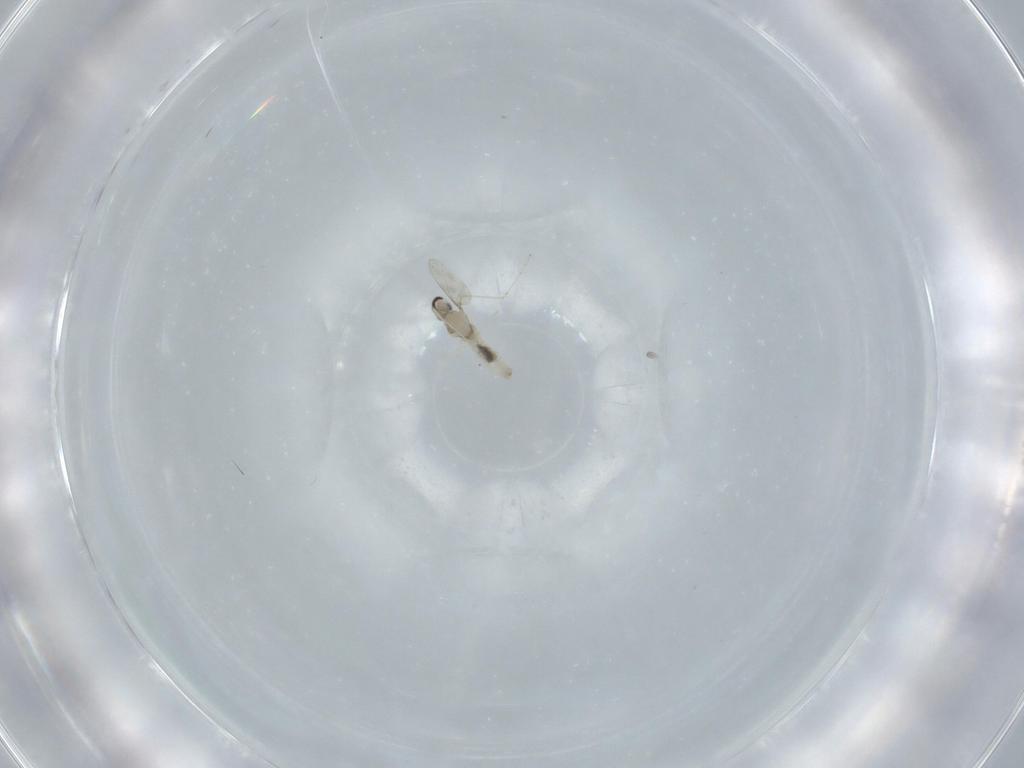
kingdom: Animalia
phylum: Arthropoda
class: Insecta
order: Diptera
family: Cecidomyiidae
